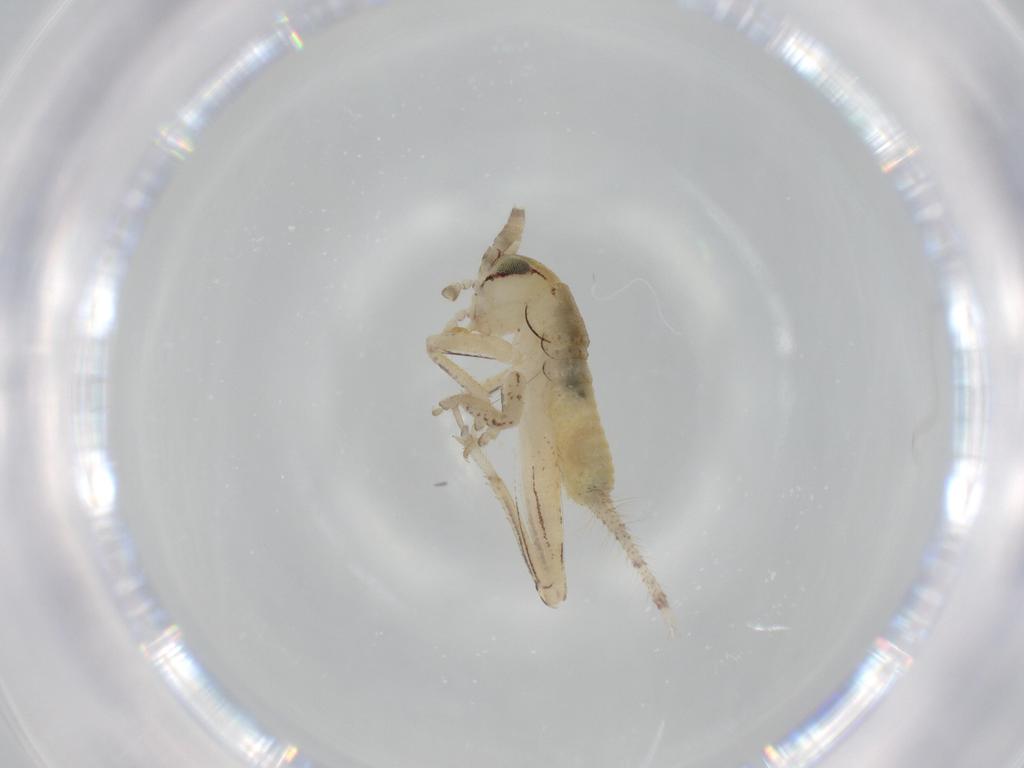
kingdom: Animalia
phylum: Arthropoda
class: Insecta
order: Orthoptera
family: Gryllidae
